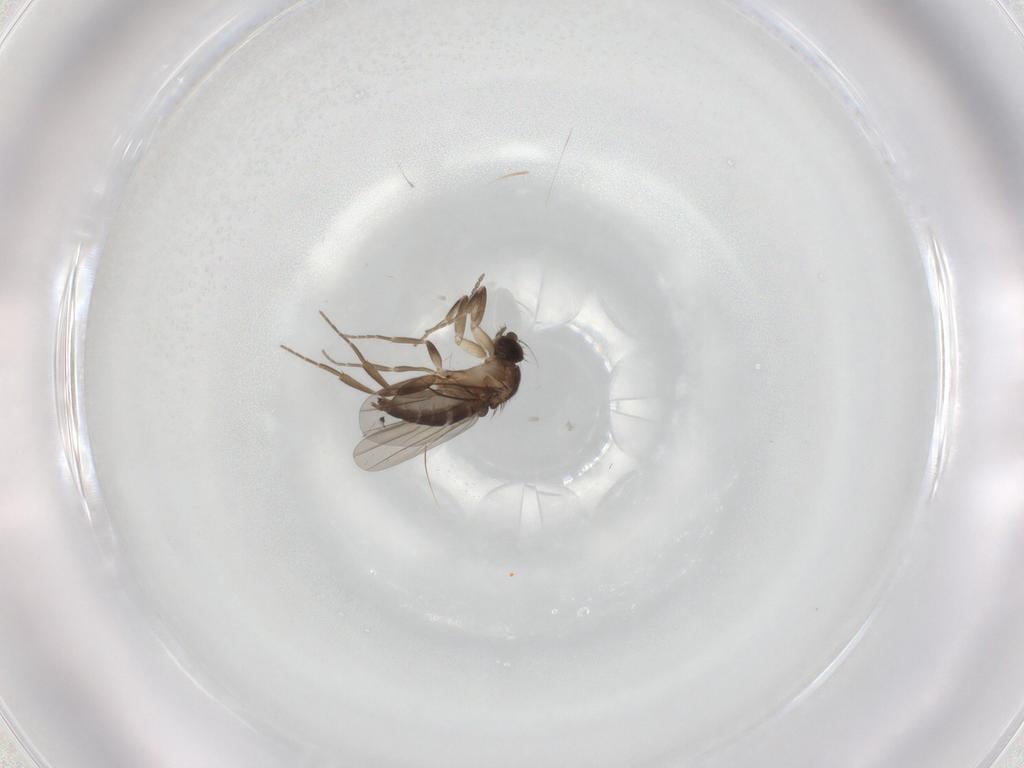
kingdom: Animalia
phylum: Arthropoda
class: Insecta
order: Diptera
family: Cecidomyiidae
